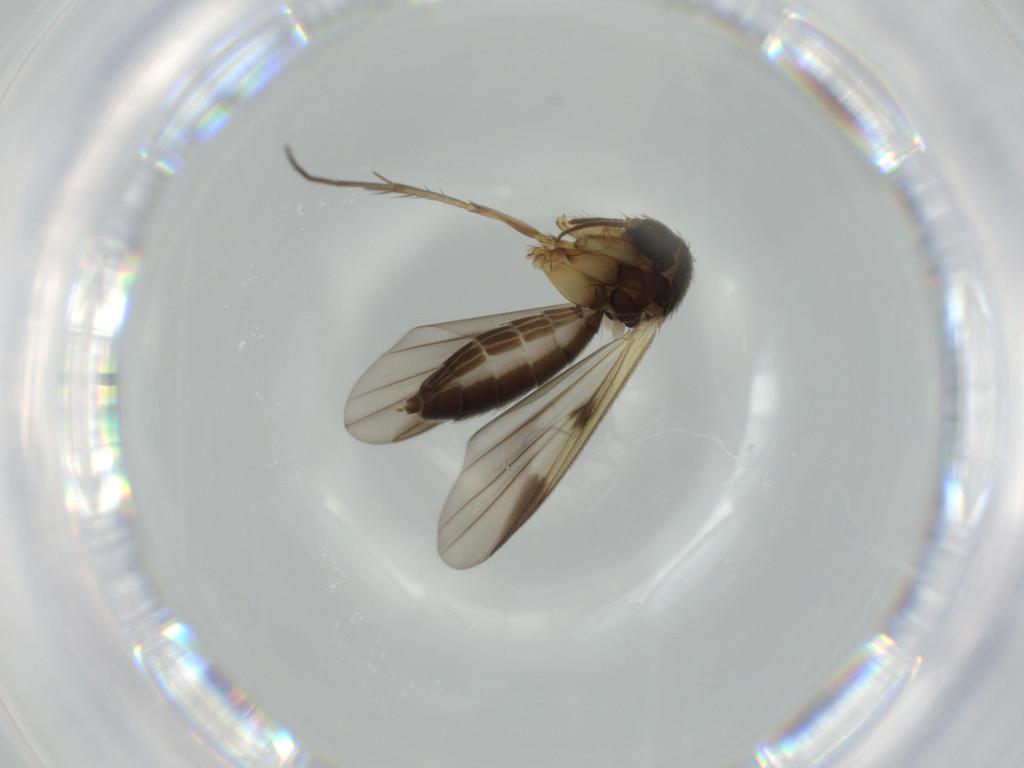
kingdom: Animalia
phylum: Arthropoda
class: Insecta
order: Diptera
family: Mycetophilidae
